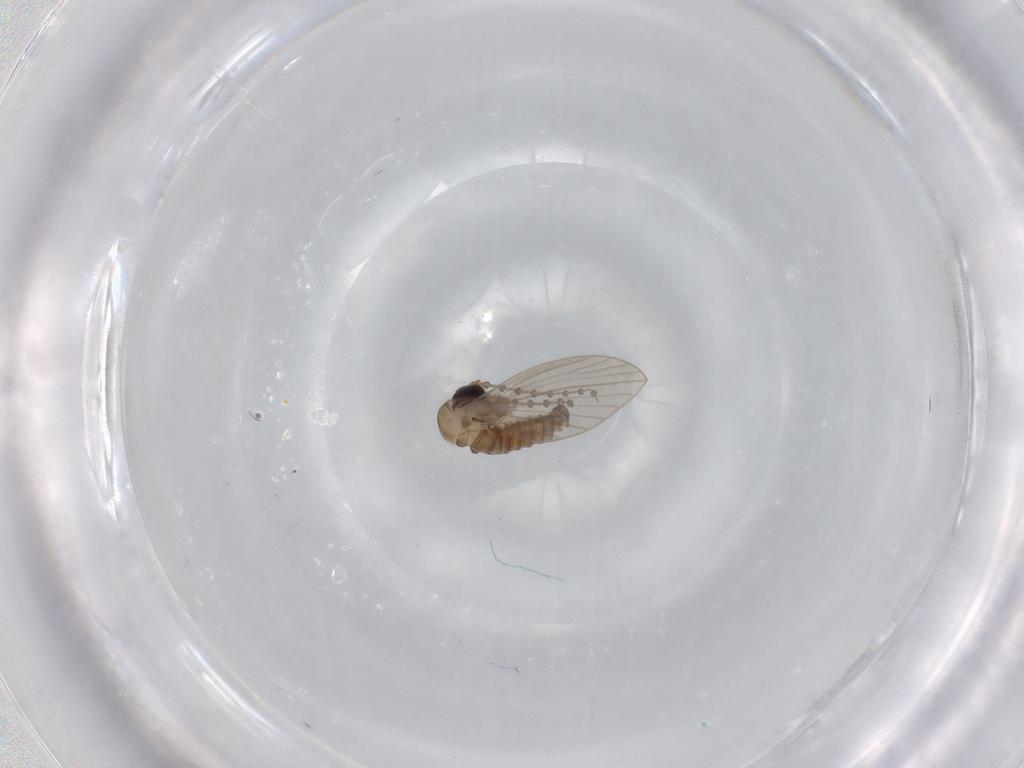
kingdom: Animalia
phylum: Arthropoda
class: Insecta
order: Diptera
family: Psychodidae
